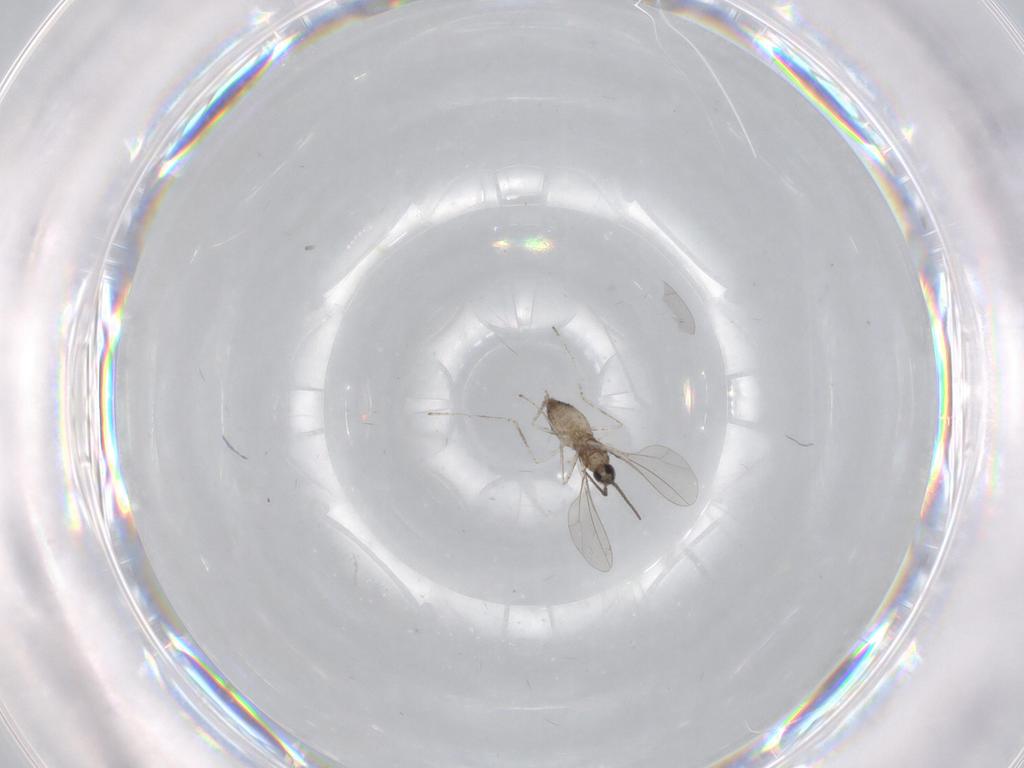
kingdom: Animalia
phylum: Arthropoda
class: Insecta
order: Diptera
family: Cecidomyiidae
